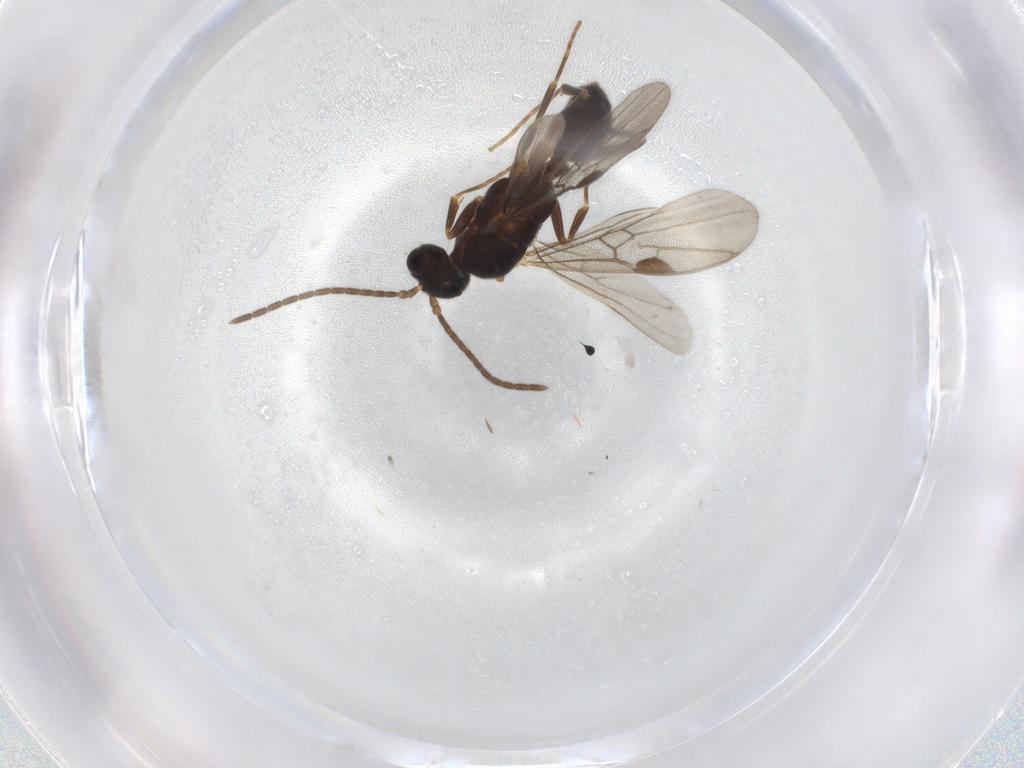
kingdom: Animalia
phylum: Arthropoda
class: Insecta
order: Hymenoptera
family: Formicidae
